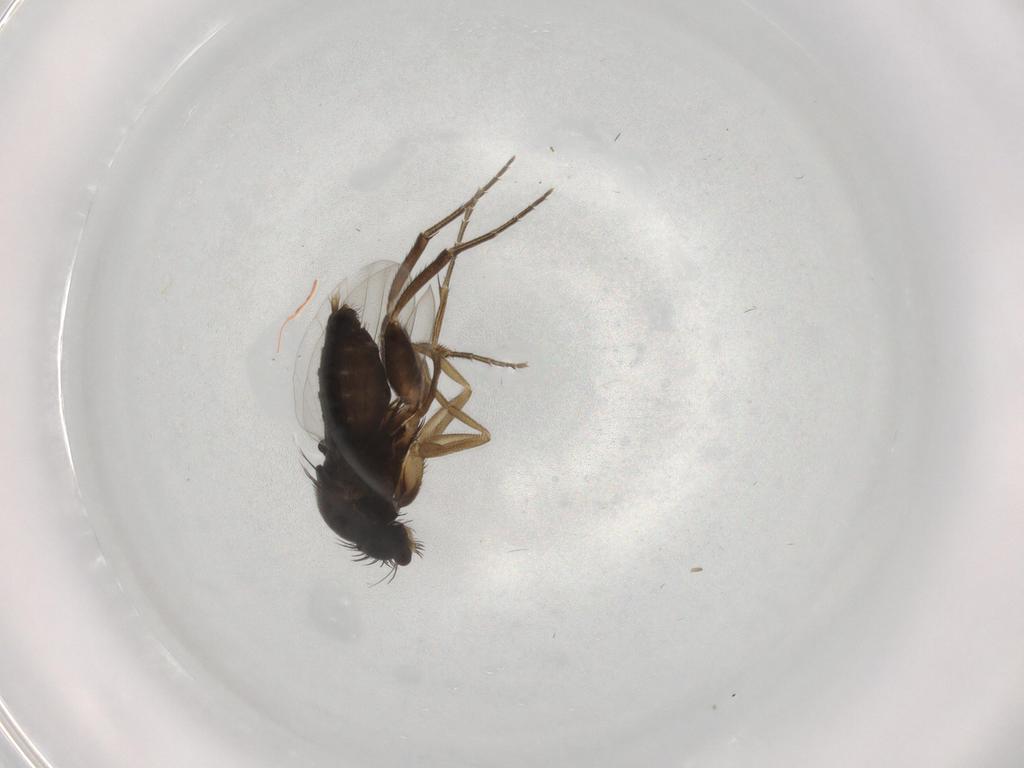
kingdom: Animalia
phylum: Arthropoda
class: Insecta
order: Diptera
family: Phoridae
